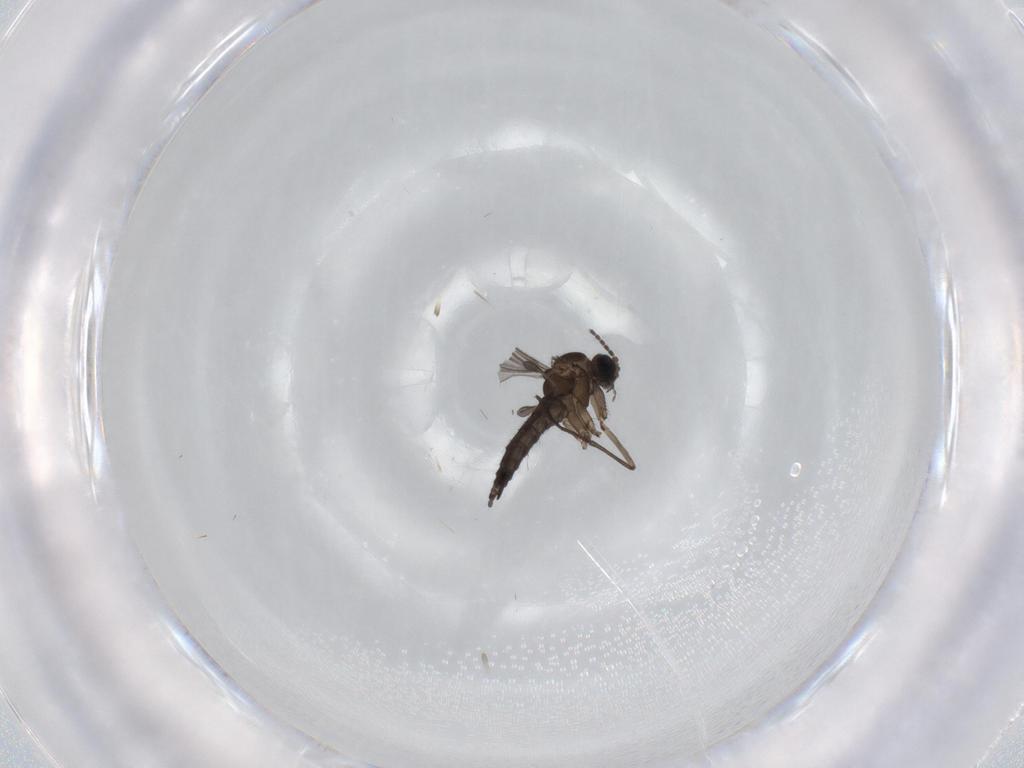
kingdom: Animalia
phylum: Arthropoda
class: Insecta
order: Diptera
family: Sciaridae
